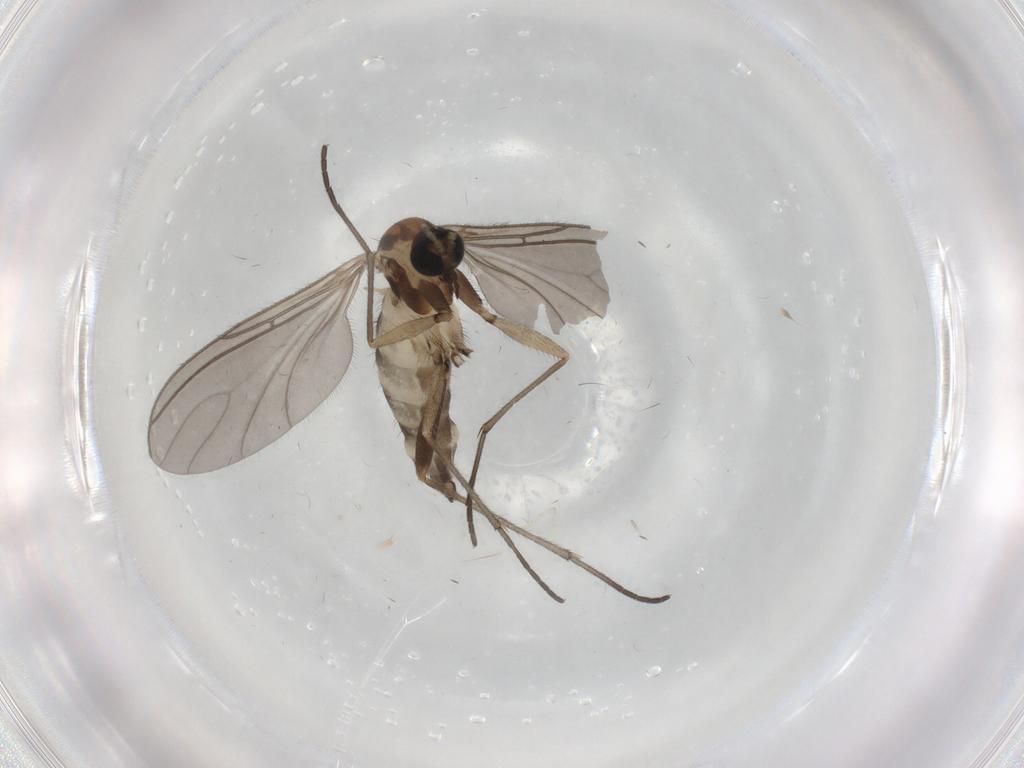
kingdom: Animalia
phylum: Arthropoda
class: Insecta
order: Diptera
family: Sciaridae
